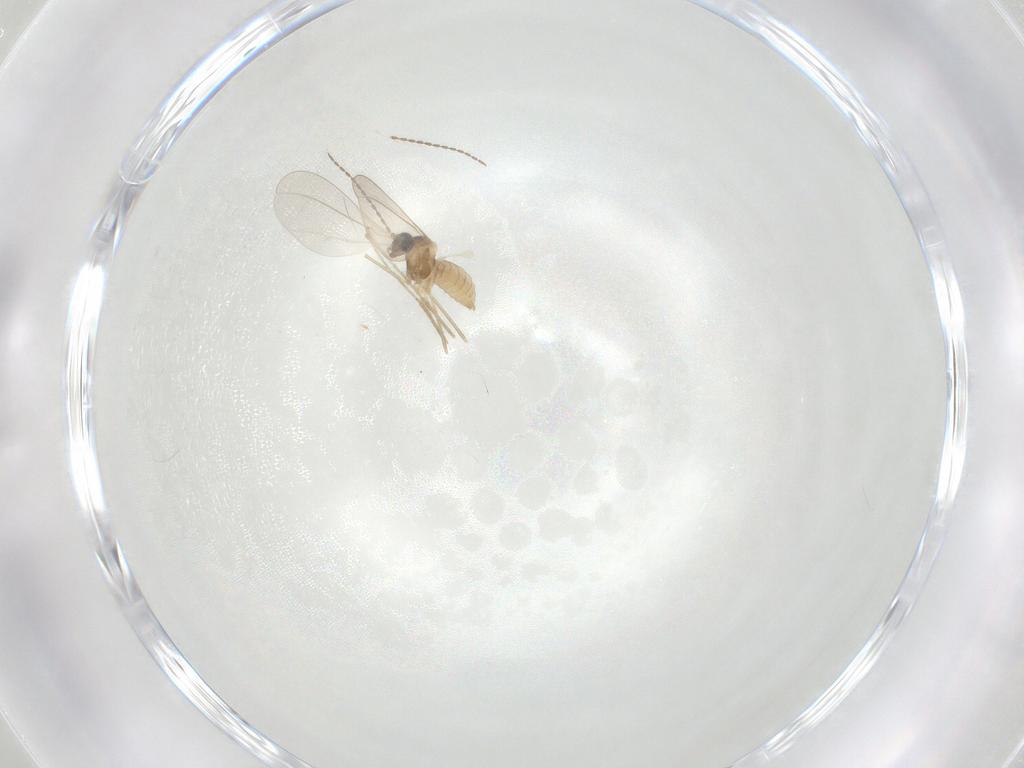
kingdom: Animalia
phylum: Arthropoda
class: Insecta
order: Diptera
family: Cecidomyiidae
